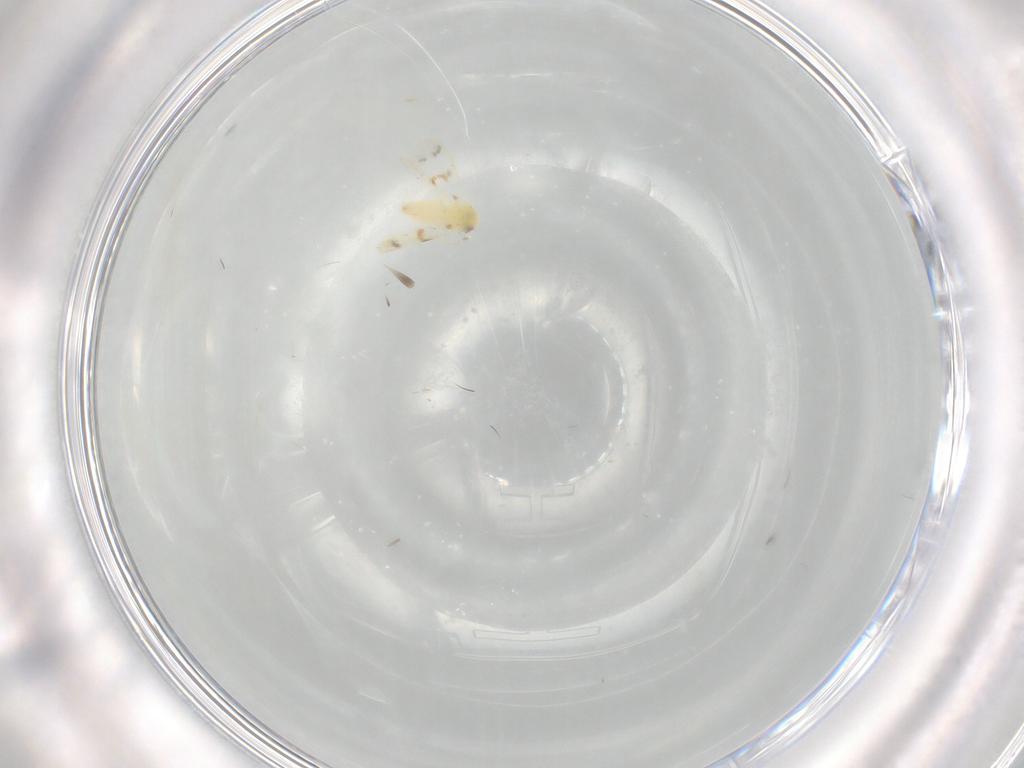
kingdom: Animalia
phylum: Arthropoda
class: Insecta
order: Hemiptera
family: Aleyrodidae
